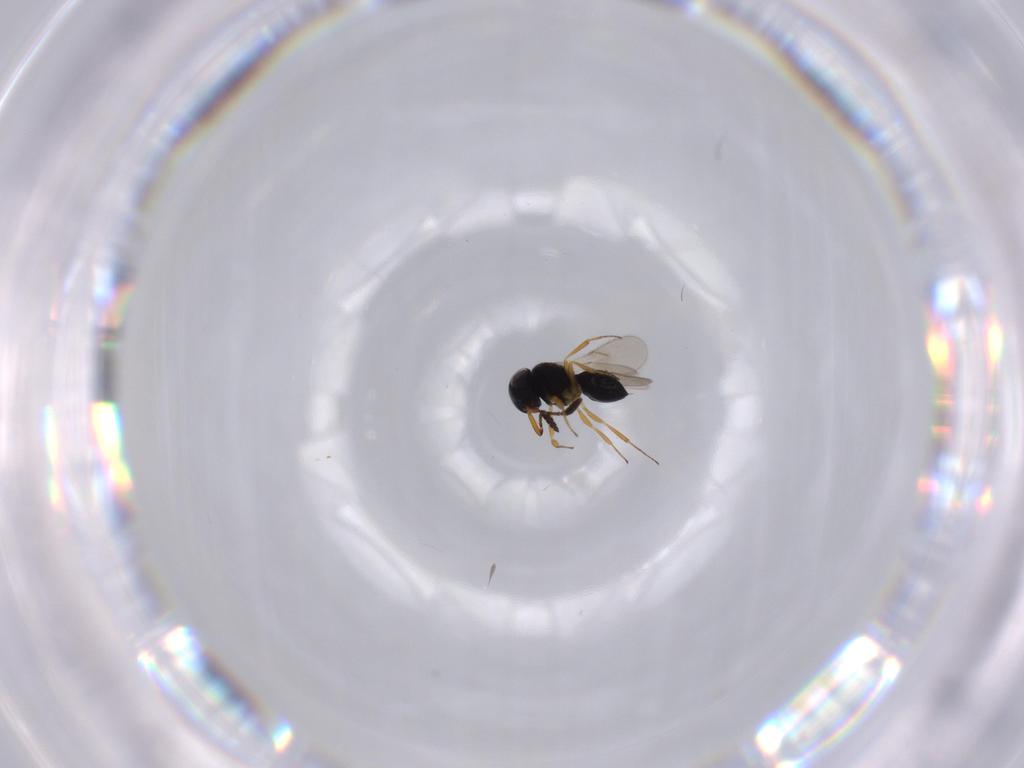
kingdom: Animalia
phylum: Arthropoda
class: Insecta
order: Hymenoptera
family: Scelionidae
